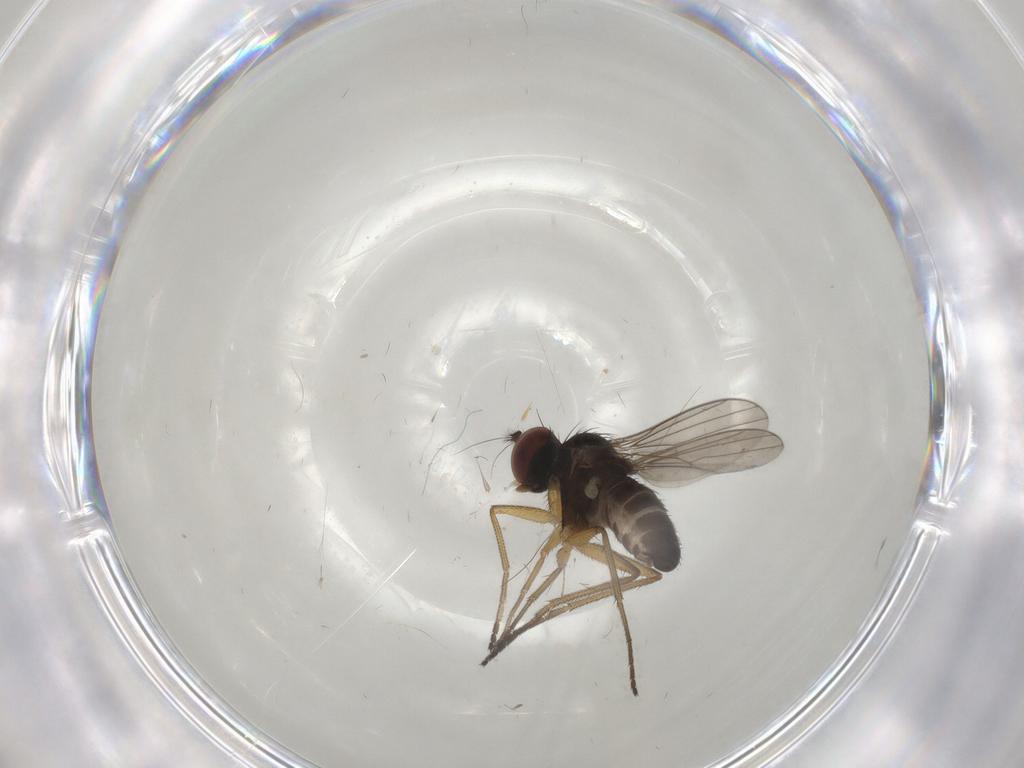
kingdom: Animalia
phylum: Arthropoda
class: Insecta
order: Diptera
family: Dolichopodidae
